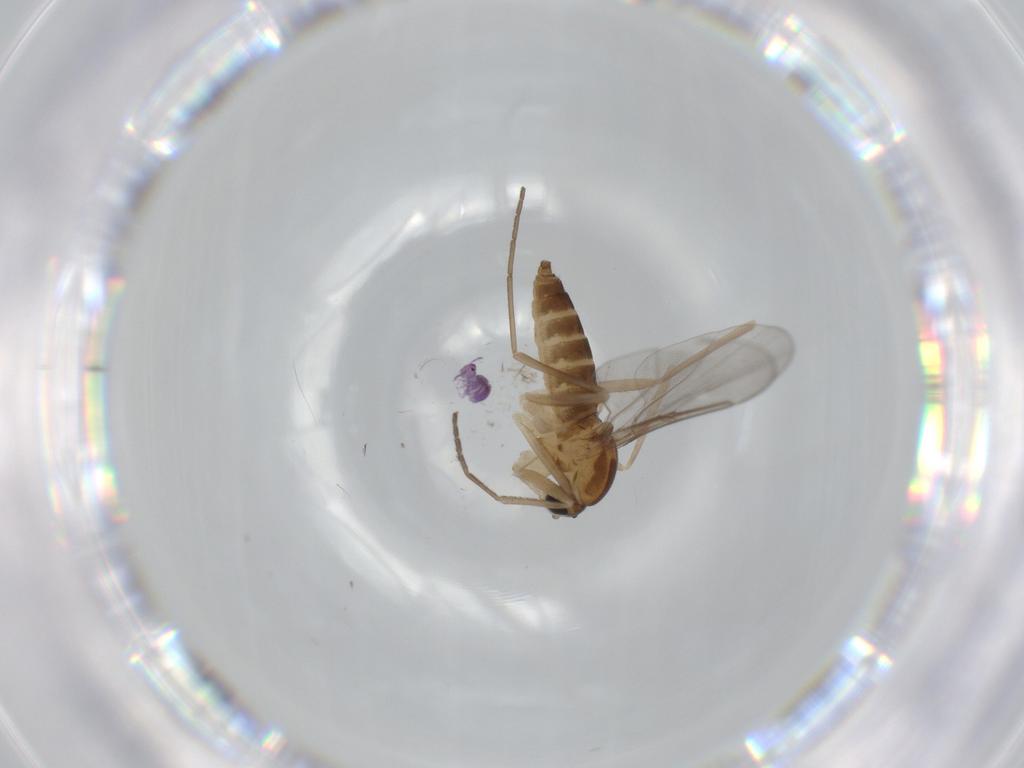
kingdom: Animalia
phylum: Arthropoda
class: Insecta
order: Diptera
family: Cecidomyiidae
